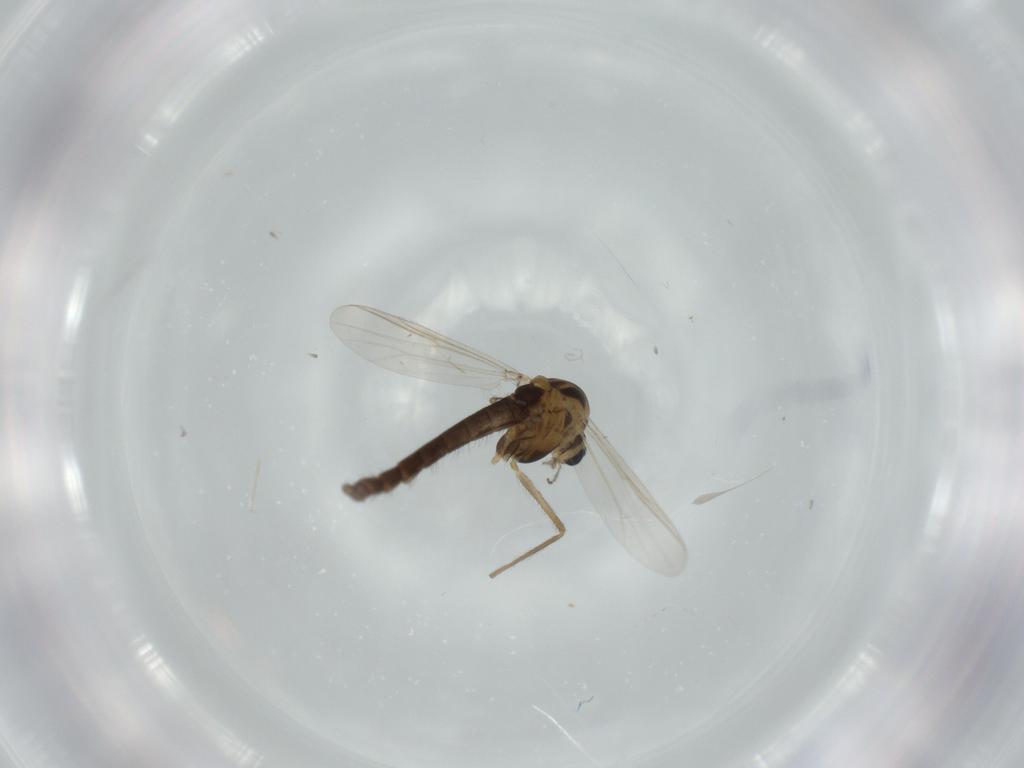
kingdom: Animalia
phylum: Arthropoda
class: Insecta
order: Diptera
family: Chironomidae
